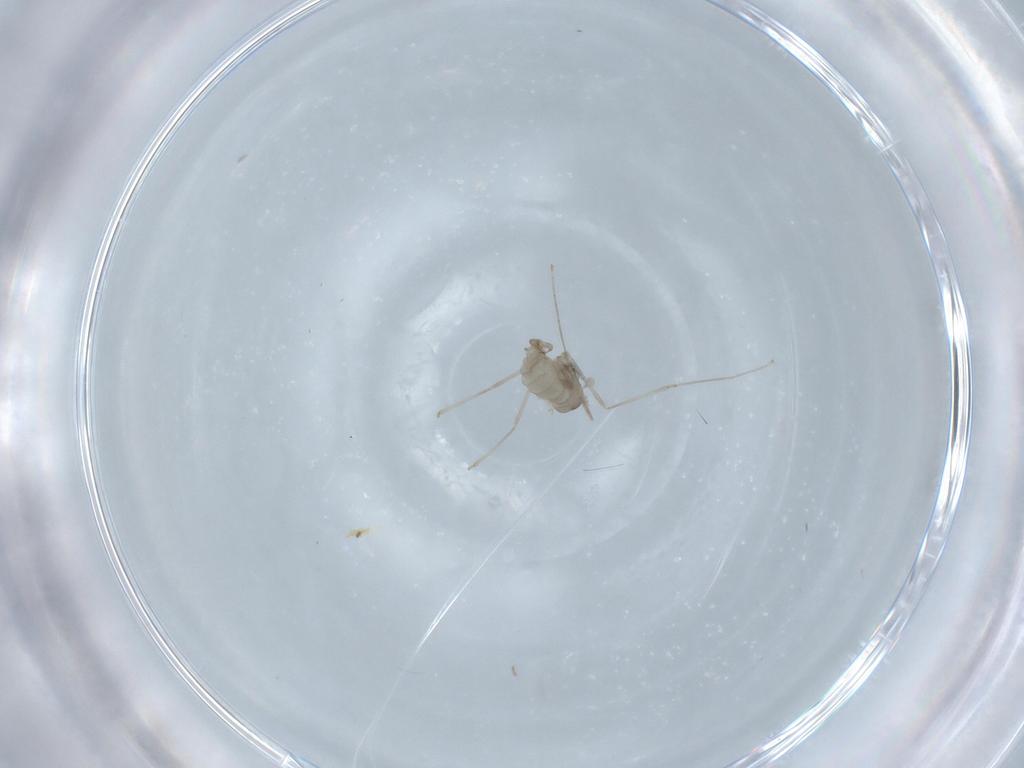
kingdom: Animalia
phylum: Arthropoda
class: Insecta
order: Diptera
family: Cecidomyiidae
